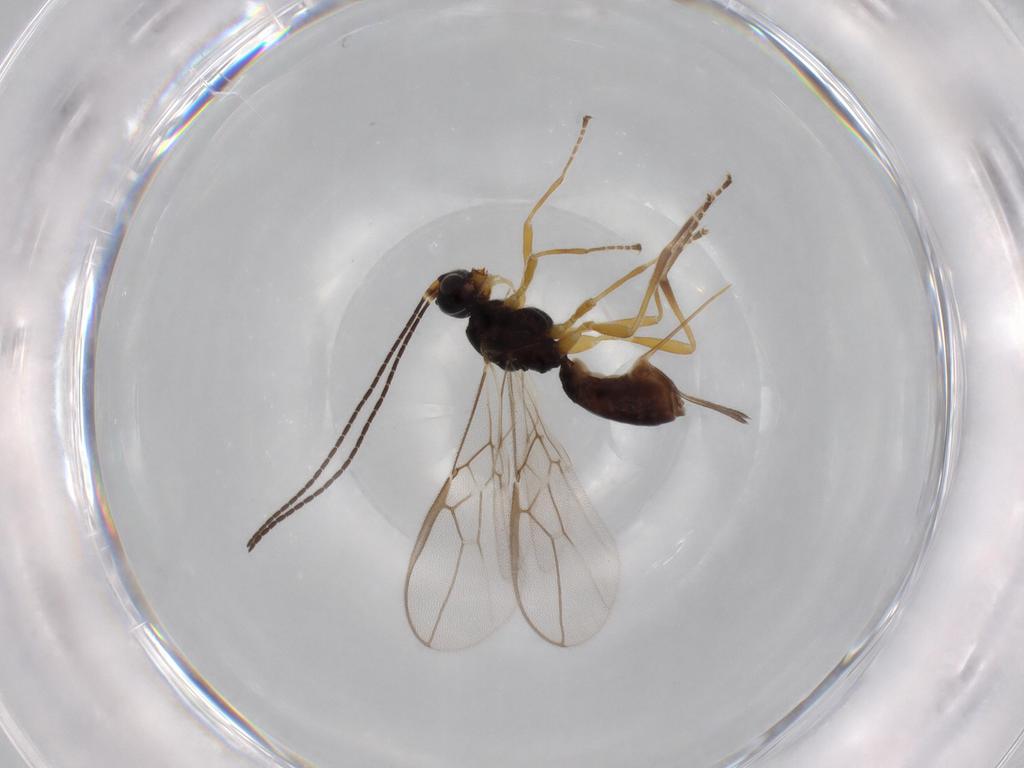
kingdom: Animalia
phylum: Arthropoda
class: Insecta
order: Hymenoptera
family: Braconidae
